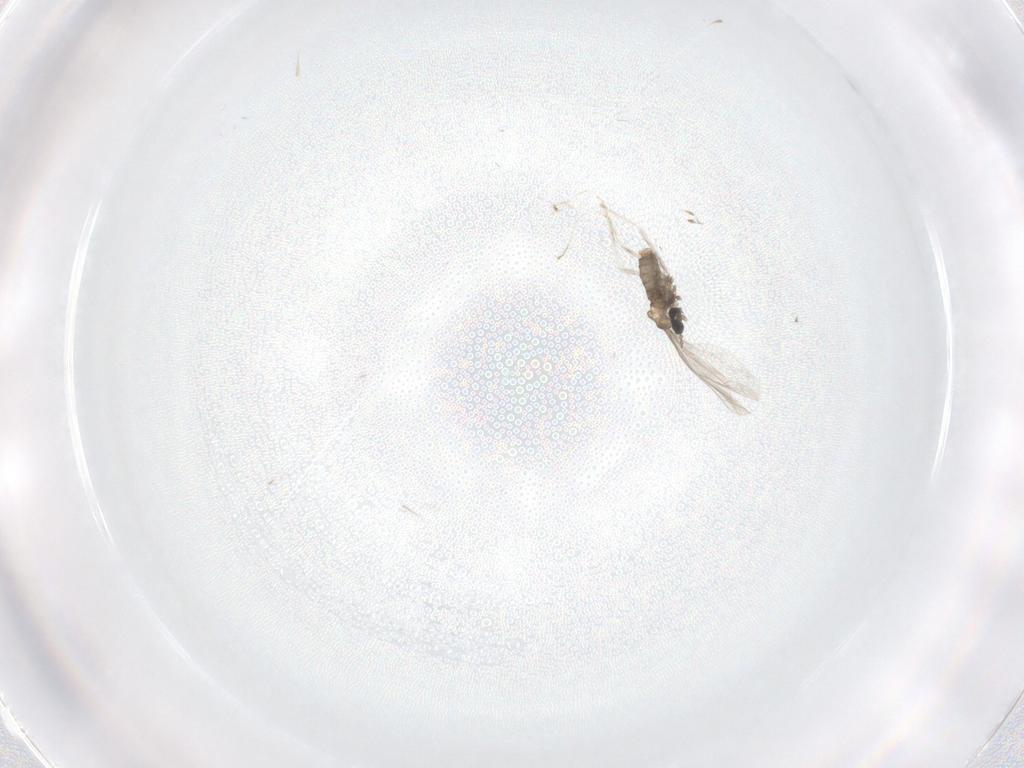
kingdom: Animalia
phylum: Arthropoda
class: Insecta
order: Diptera
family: Cecidomyiidae
